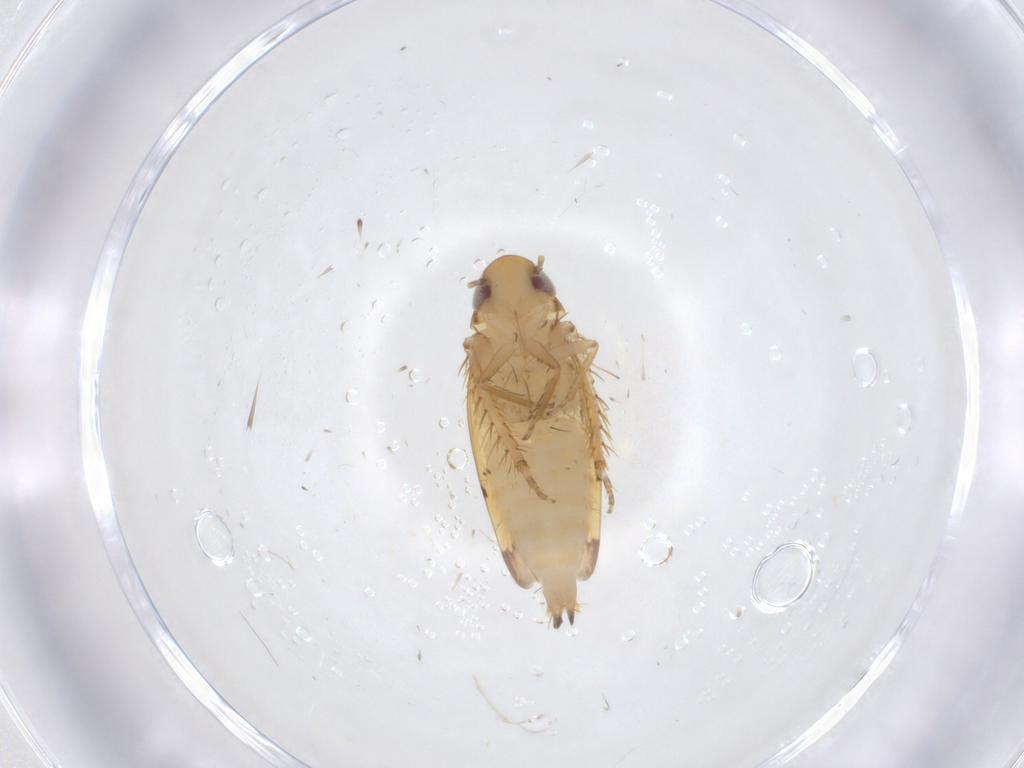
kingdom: Animalia
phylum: Arthropoda
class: Insecta
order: Hemiptera
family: Cicadellidae
